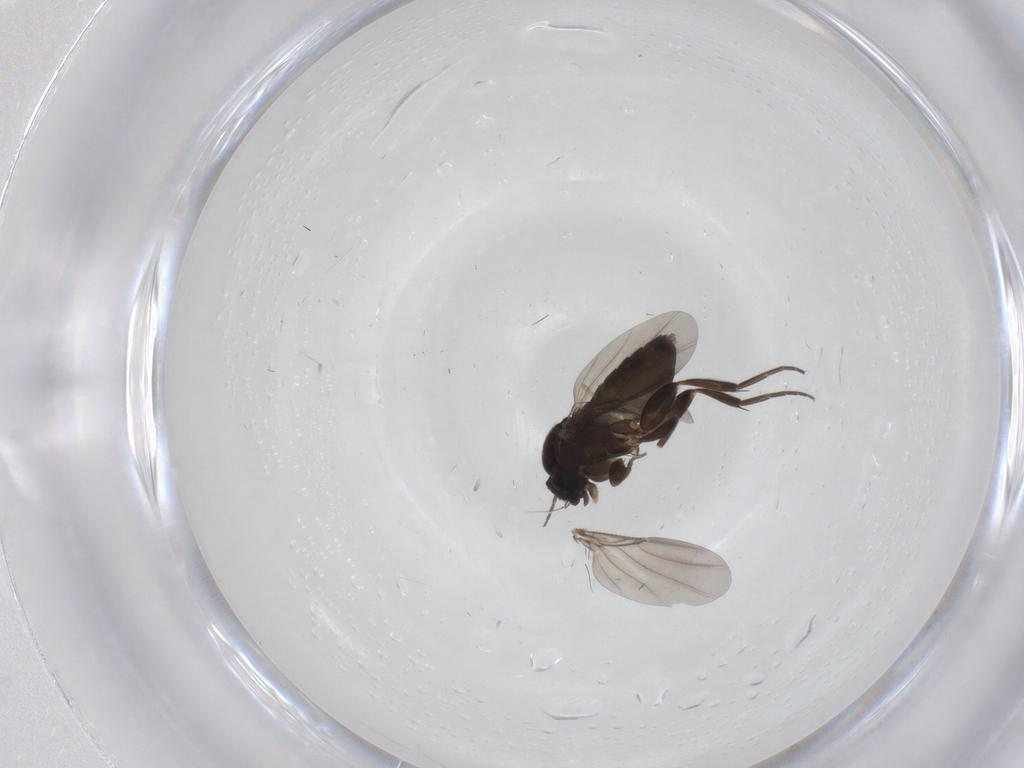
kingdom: Animalia
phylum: Arthropoda
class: Insecta
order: Diptera
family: Phoridae
